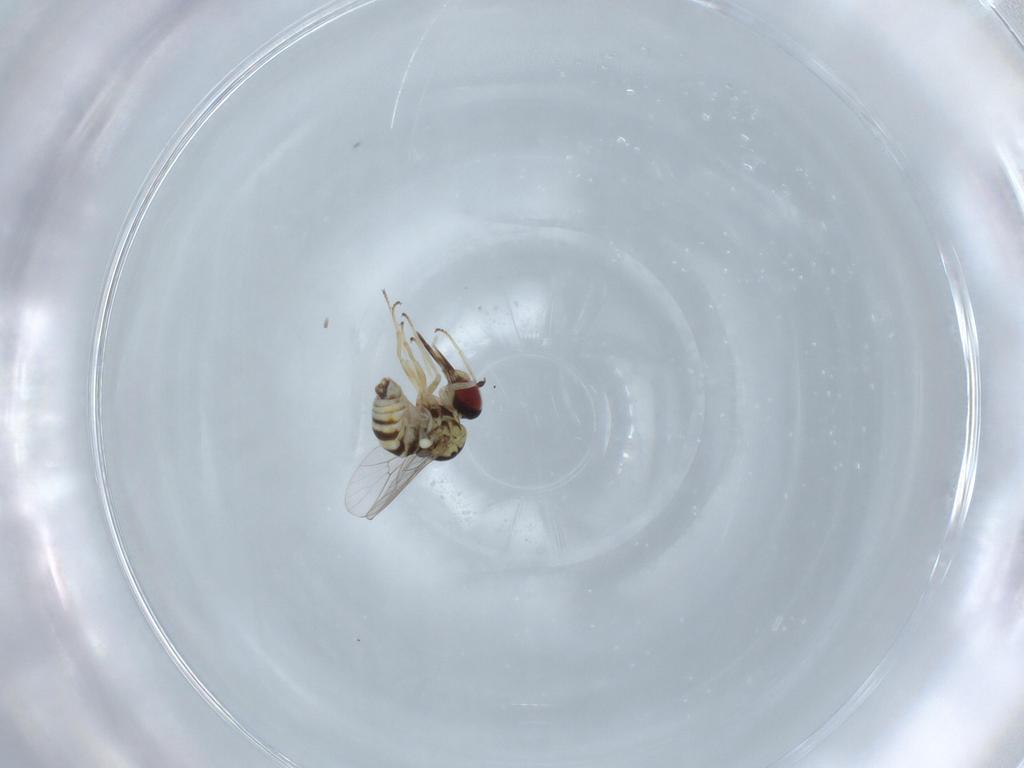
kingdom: Animalia
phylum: Arthropoda
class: Insecta
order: Diptera
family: Bombyliidae
